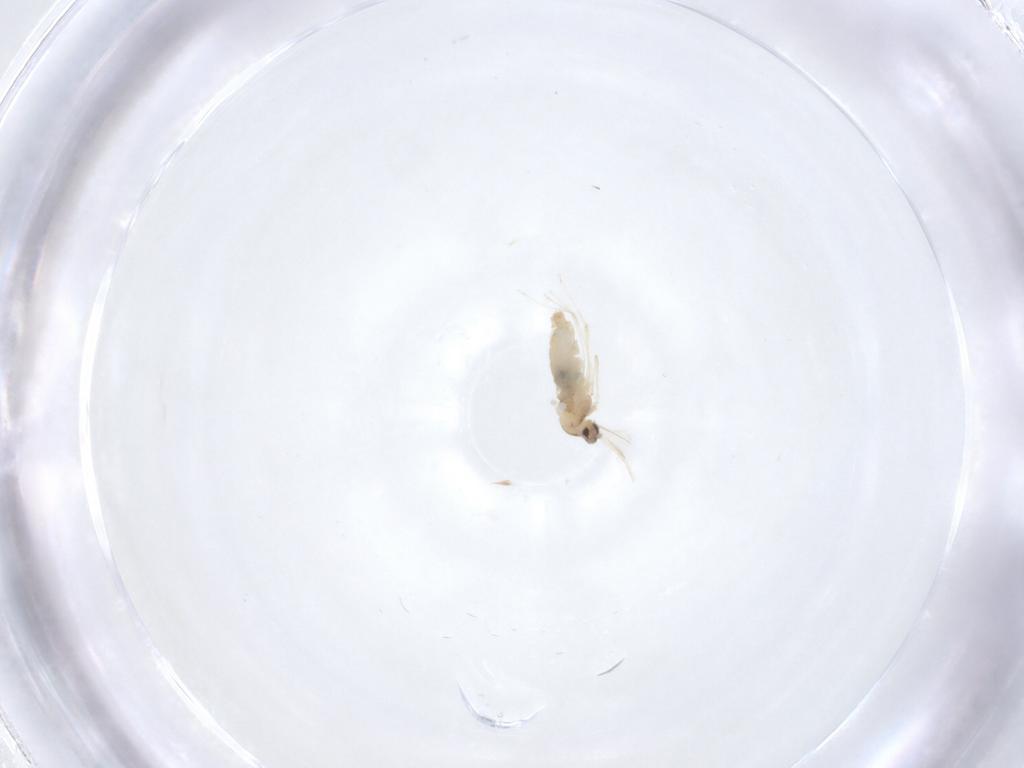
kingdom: Animalia
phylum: Arthropoda
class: Insecta
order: Diptera
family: Cecidomyiidae
